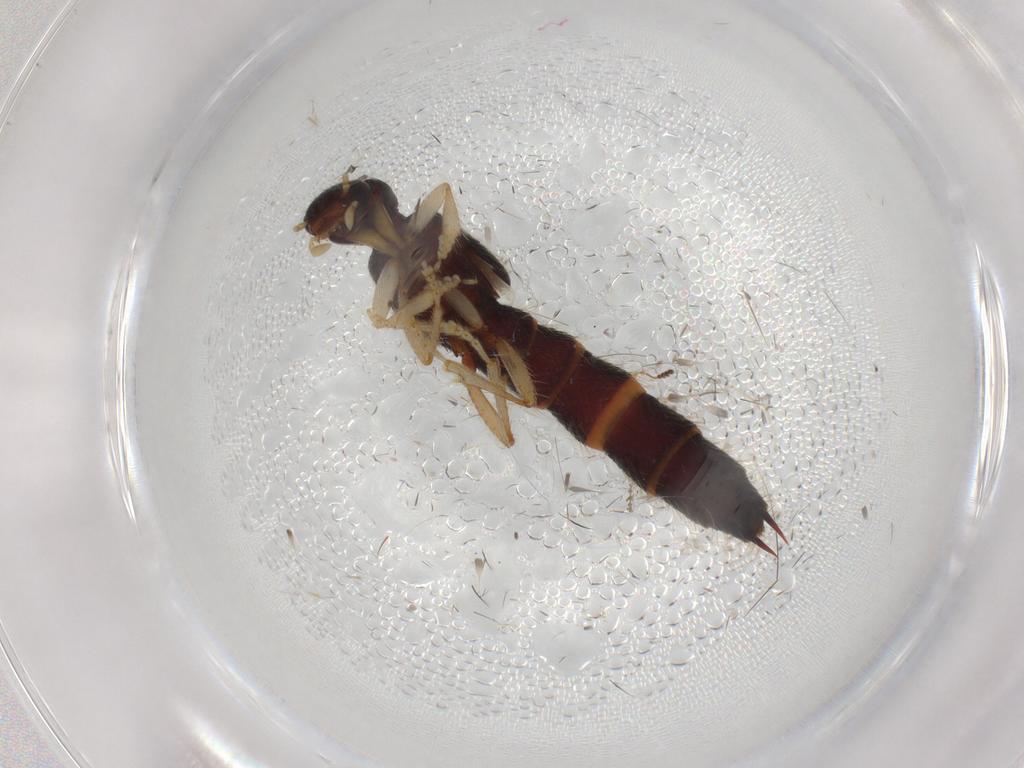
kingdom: Animalia
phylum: Arthropoda
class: Insecta
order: Coleoptera
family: Staphylinidae
